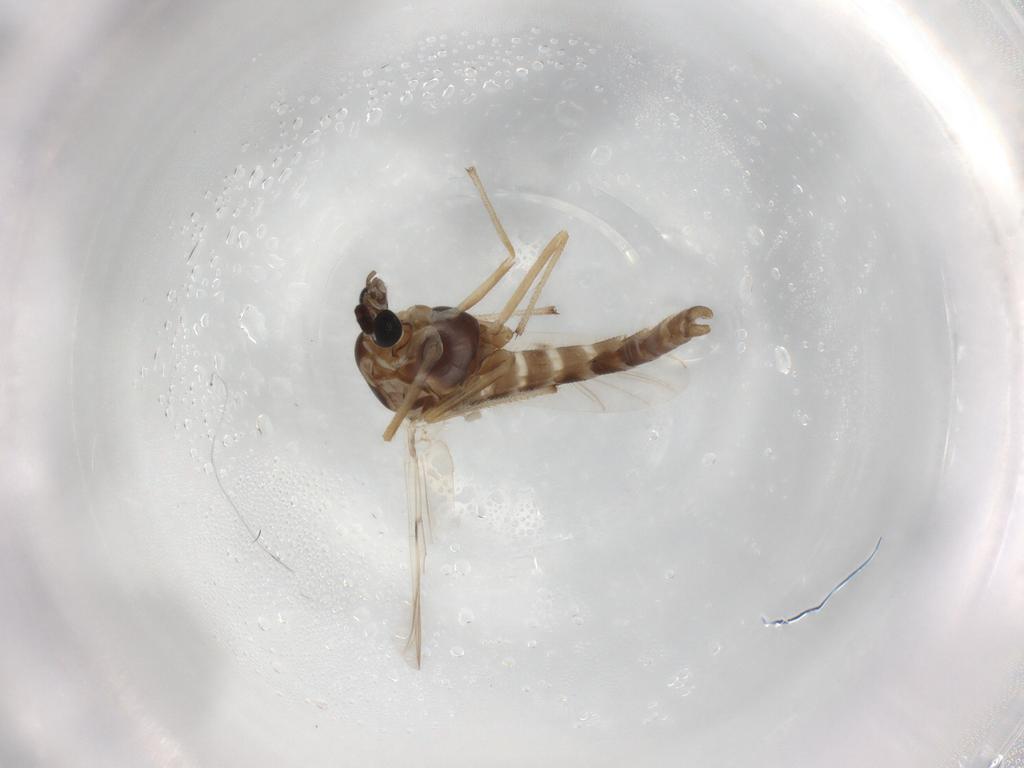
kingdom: Animalia
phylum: Arthropoda
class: Insecta
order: Diptera
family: Chironomidae
